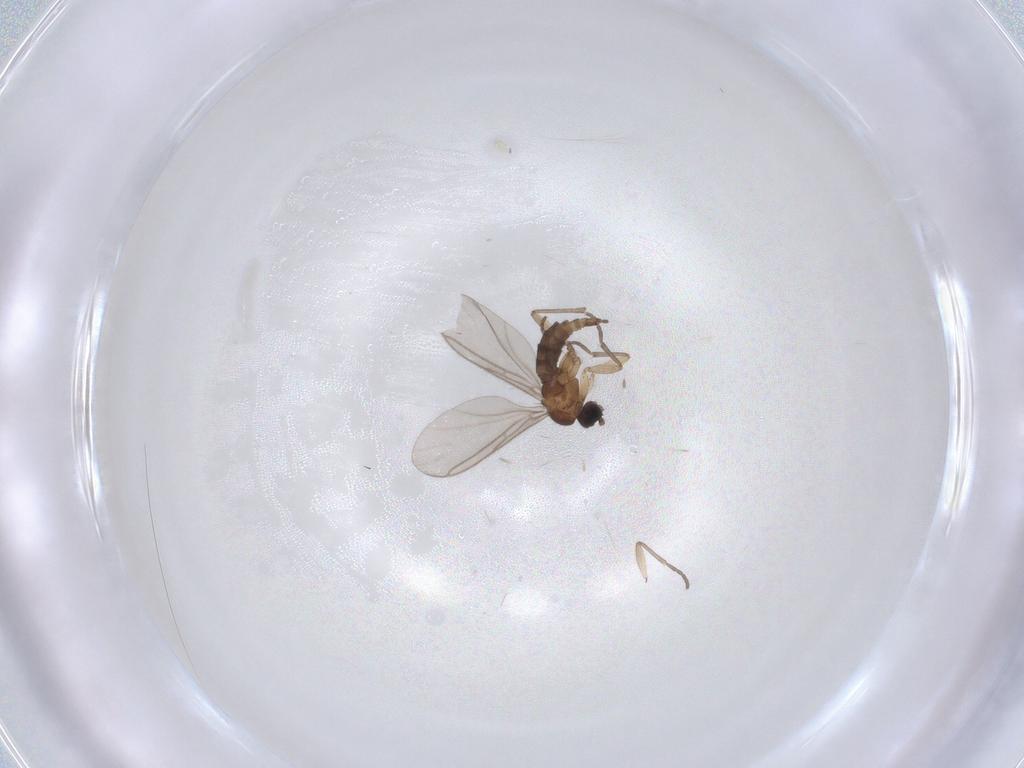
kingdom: Animalia
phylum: Arthropoda
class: Insecta
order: Diptera
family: Sciaridae
